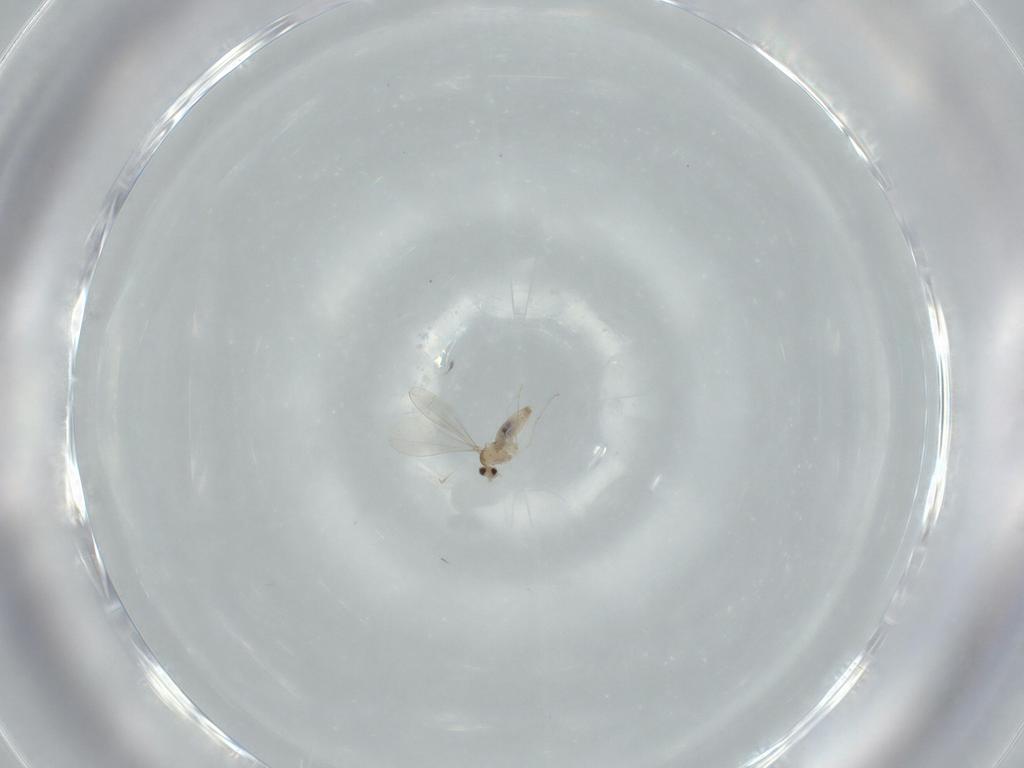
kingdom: Animalia
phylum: Arthropoda
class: Insecta
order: Diptera
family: Cecidomyiidae
